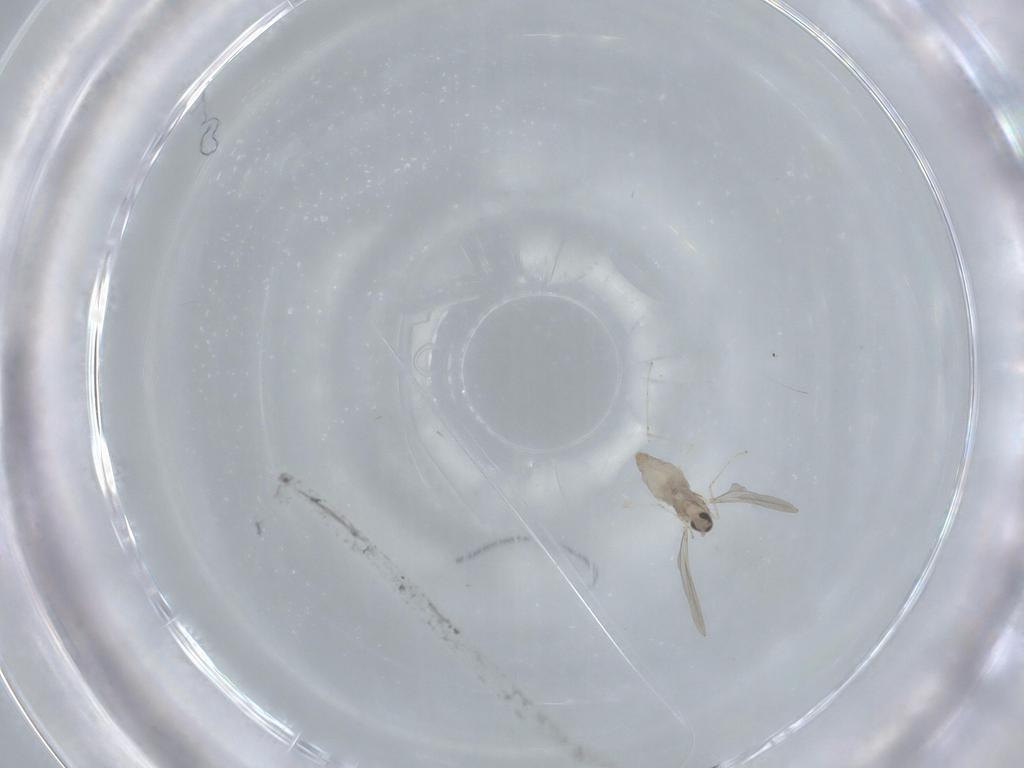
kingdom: Animalia
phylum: Arthropoda
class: Insecta
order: Diptera
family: Cecidomyiidae
